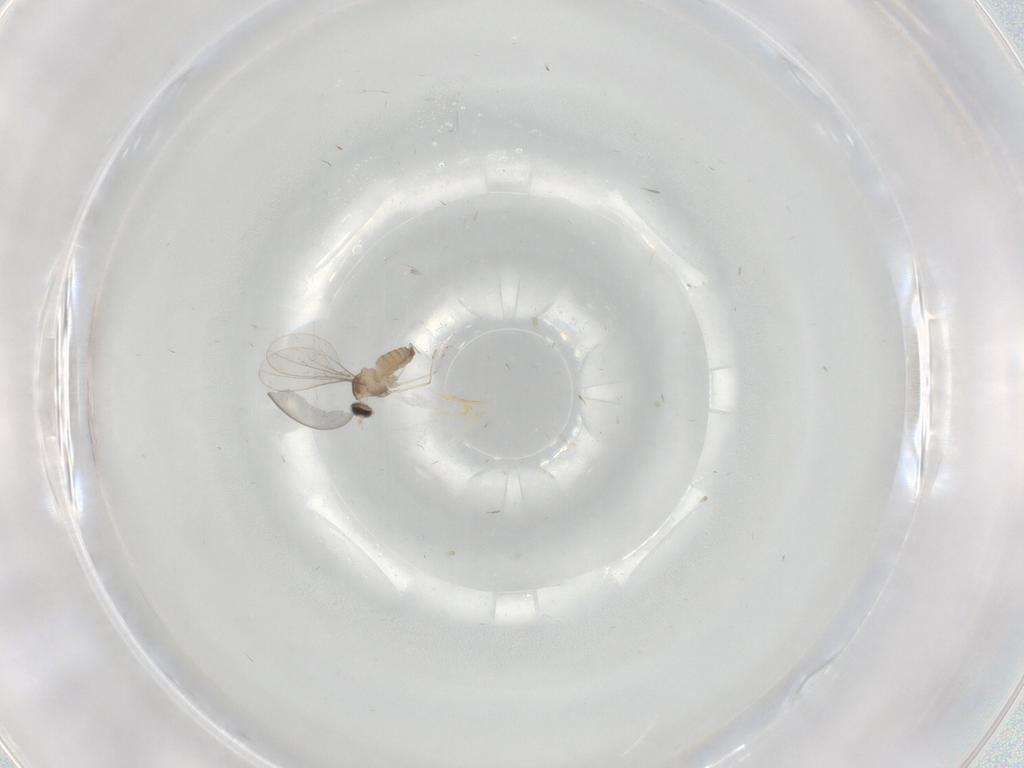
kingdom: Animalia
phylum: Arthropoda
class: Insecta
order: Diptera
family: Cecidomyiidae
